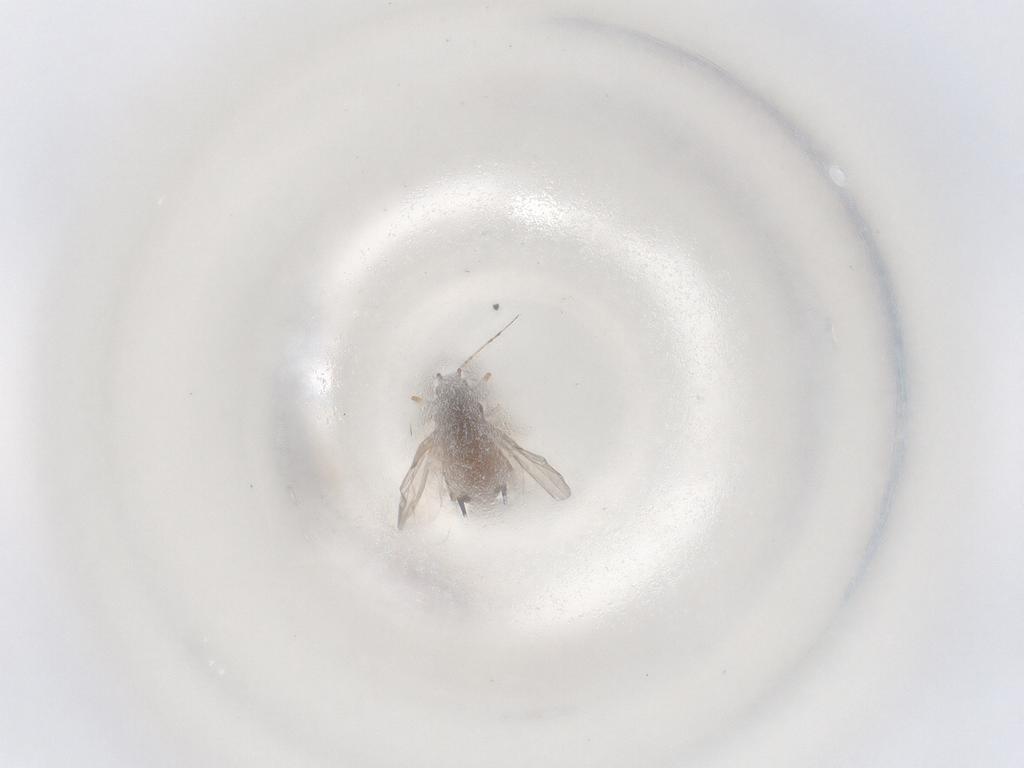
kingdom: Animalia
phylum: Arthropoda
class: Insecta
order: Hemiptera
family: Aphididae
